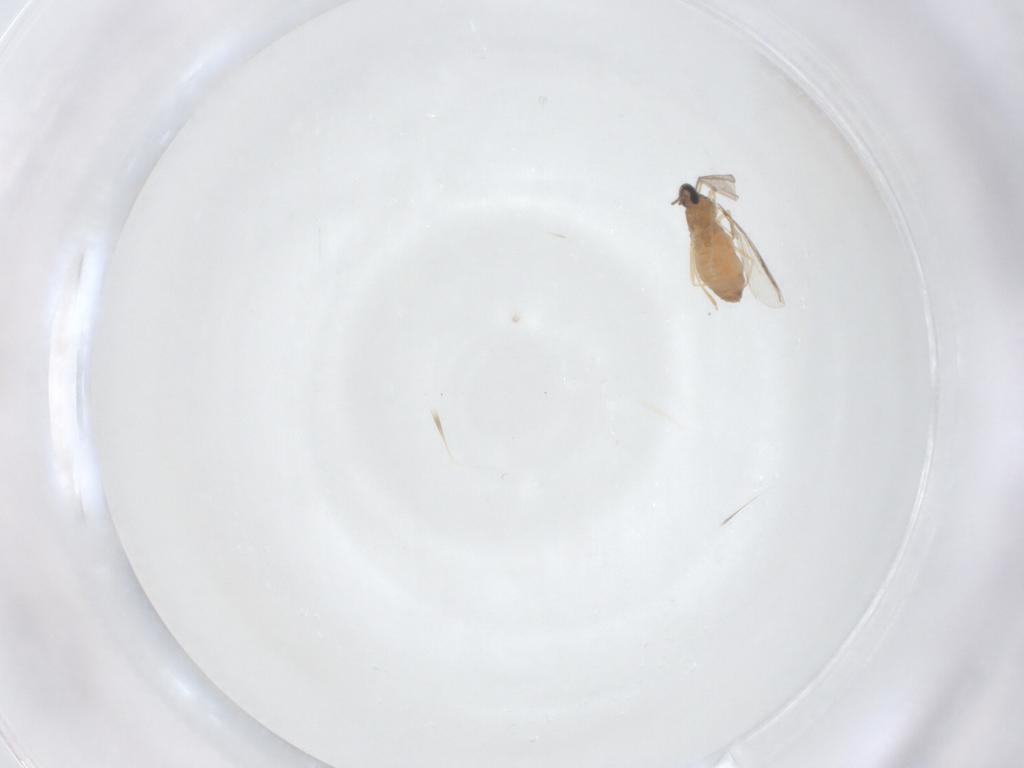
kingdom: Animalia
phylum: Arthropoda
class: Insecta
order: Diptera
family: Cecidomyiidae
